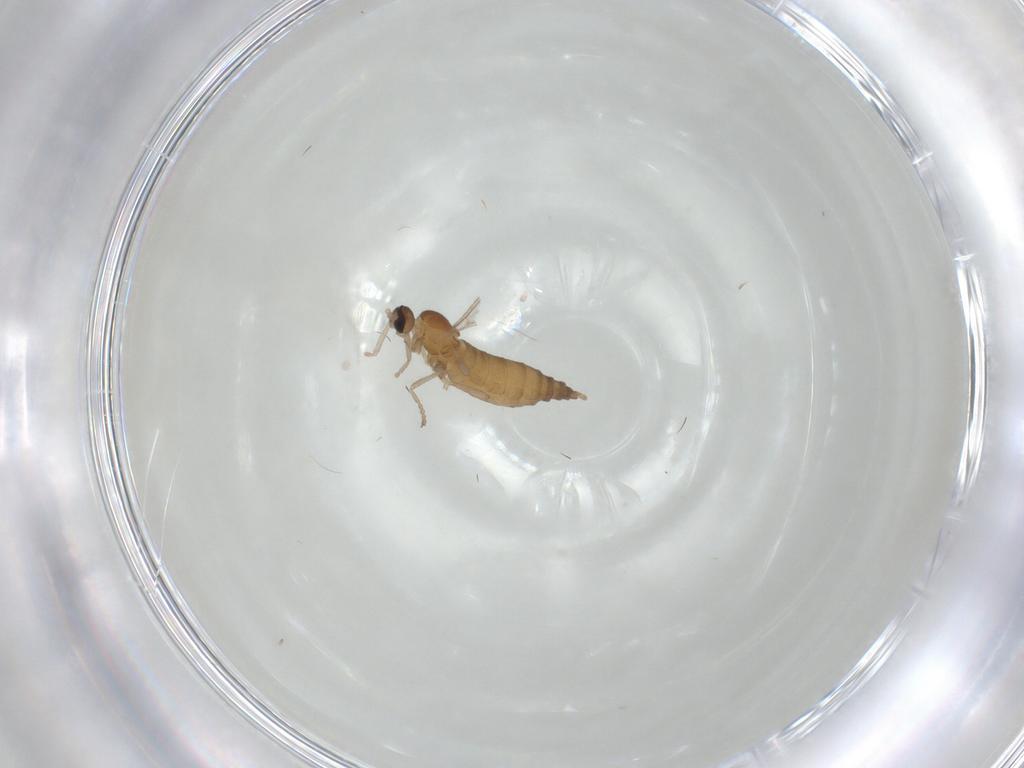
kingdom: Animalia
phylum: Arthropoda
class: Insecta
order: Diptera
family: Cecidomyiidae
